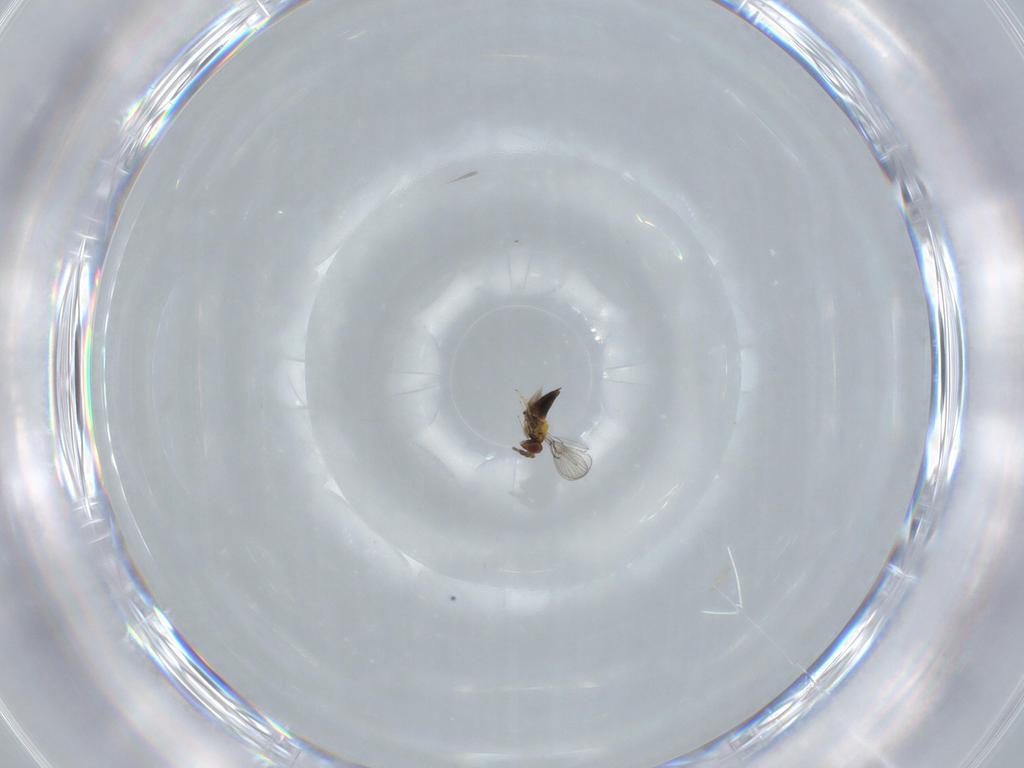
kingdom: Animalia
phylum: Arthropoda
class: Insecta
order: Hymenoptera
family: Trichogrammatidae
